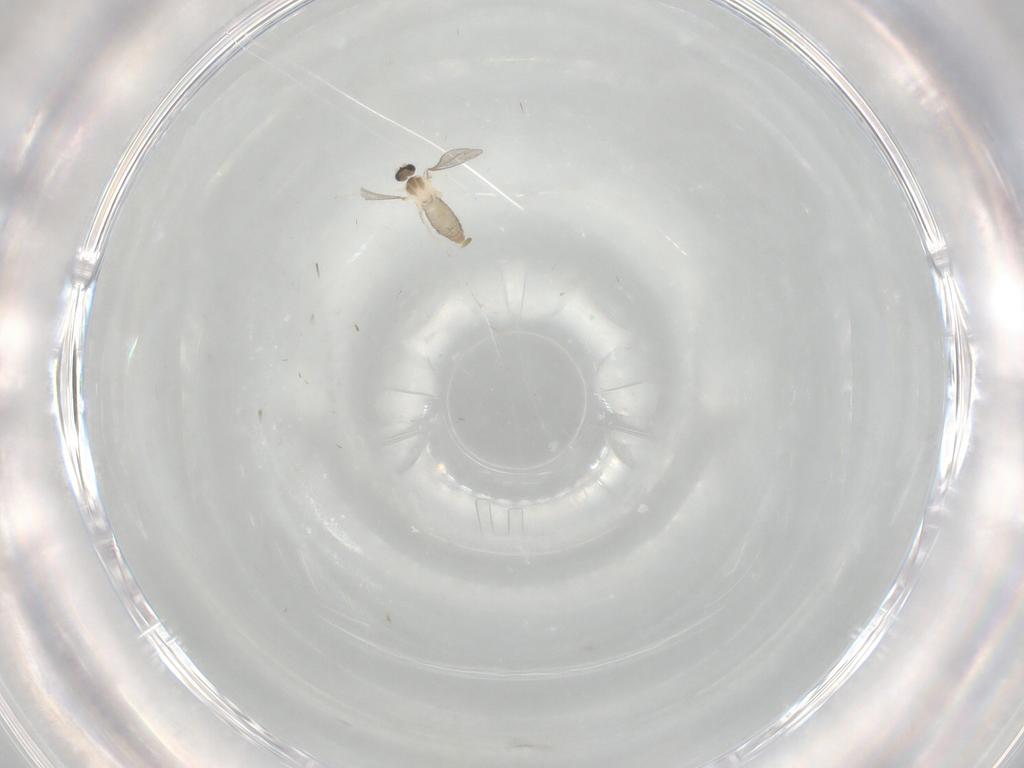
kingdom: Animalia
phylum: Arthropoda
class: Insecta
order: Diptera
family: Cecidomyiidae
